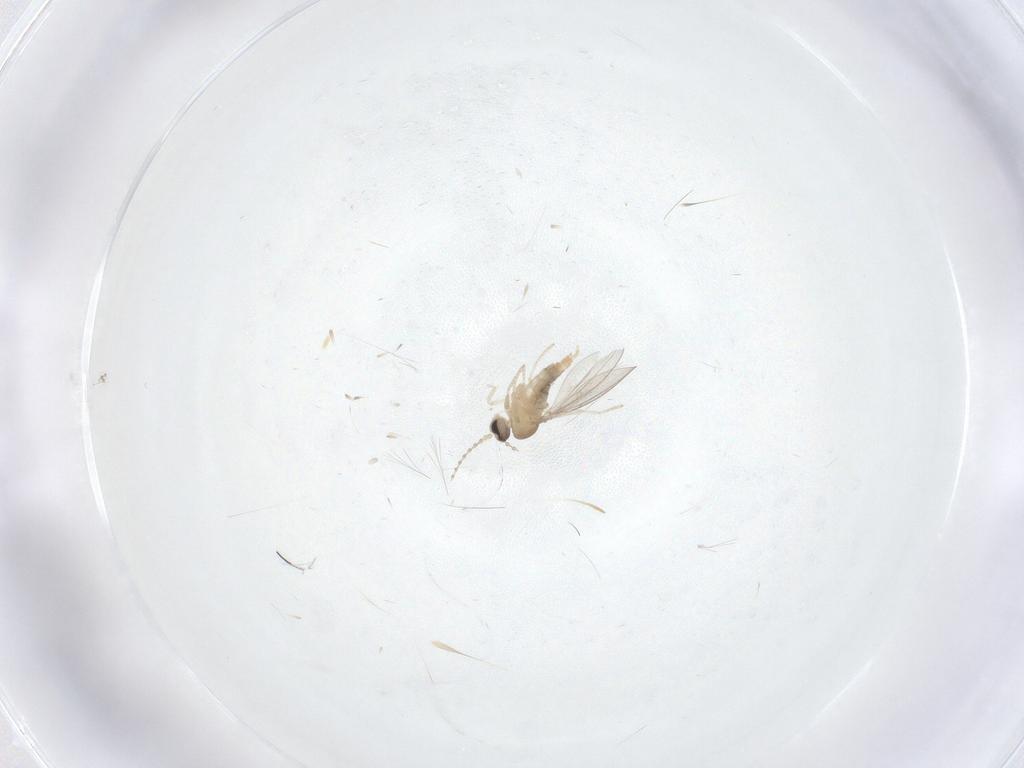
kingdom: Animalia
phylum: Arthropoda
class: Insecta
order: Diptera
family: Cecidomyiidae
